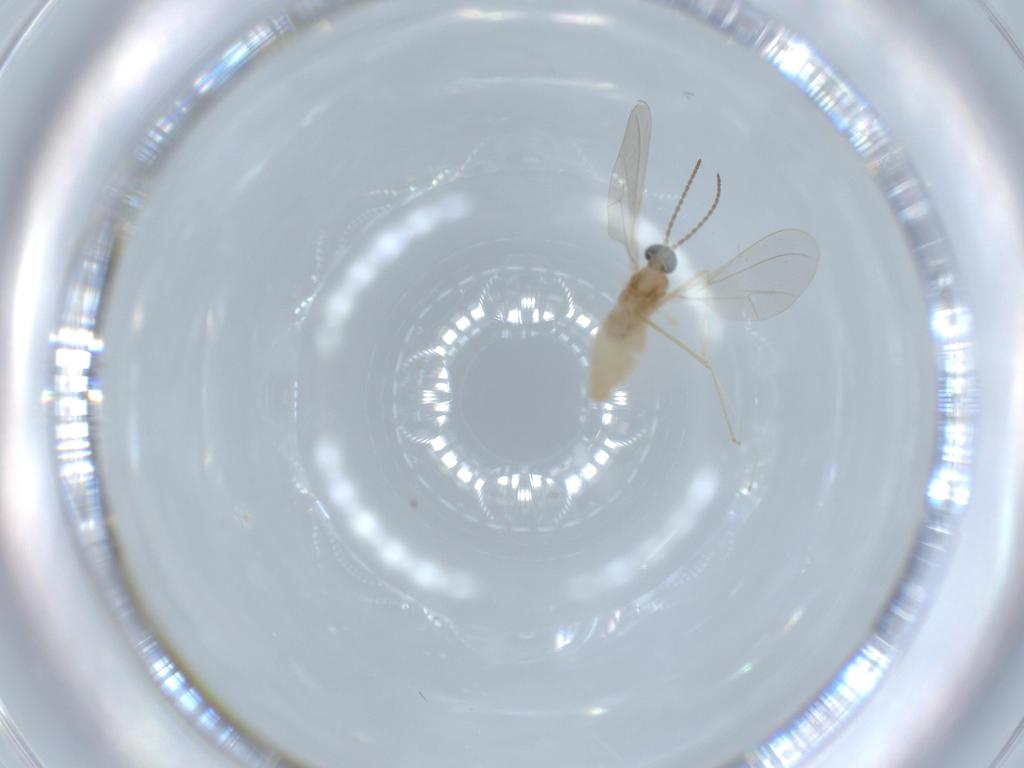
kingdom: Animalia
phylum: Arthropoda
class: Insecta
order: Diptera
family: Cecidomyiidae
